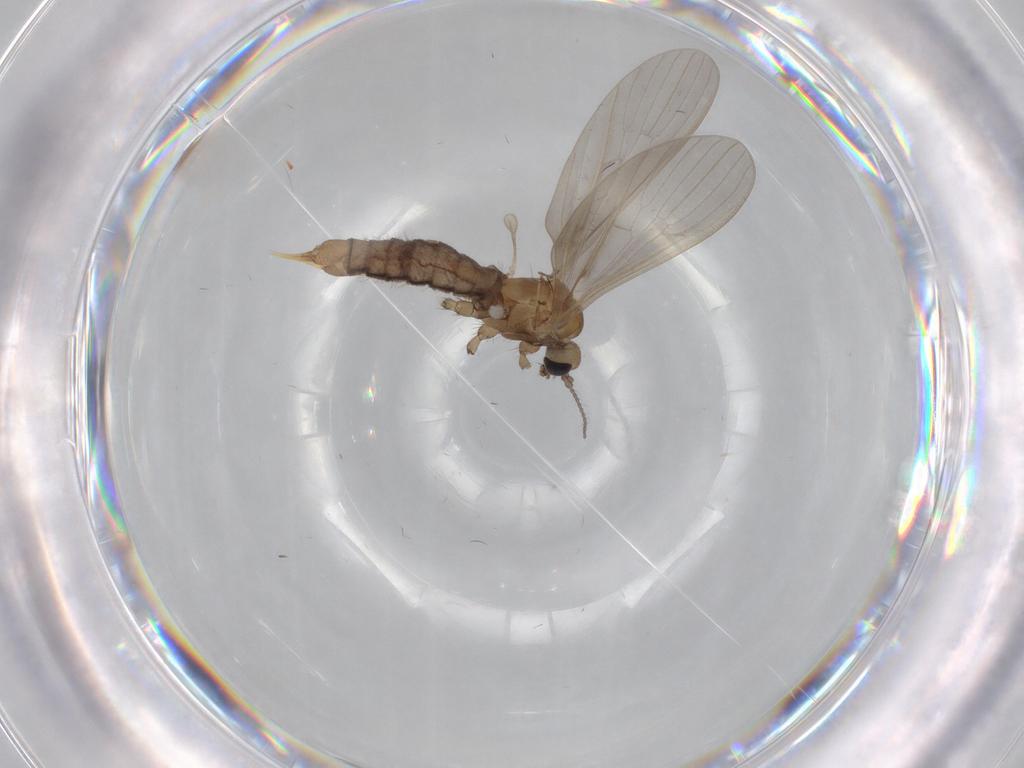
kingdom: Animalia
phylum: Arthropoda
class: Insecta
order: Diptera
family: Limoniidae
